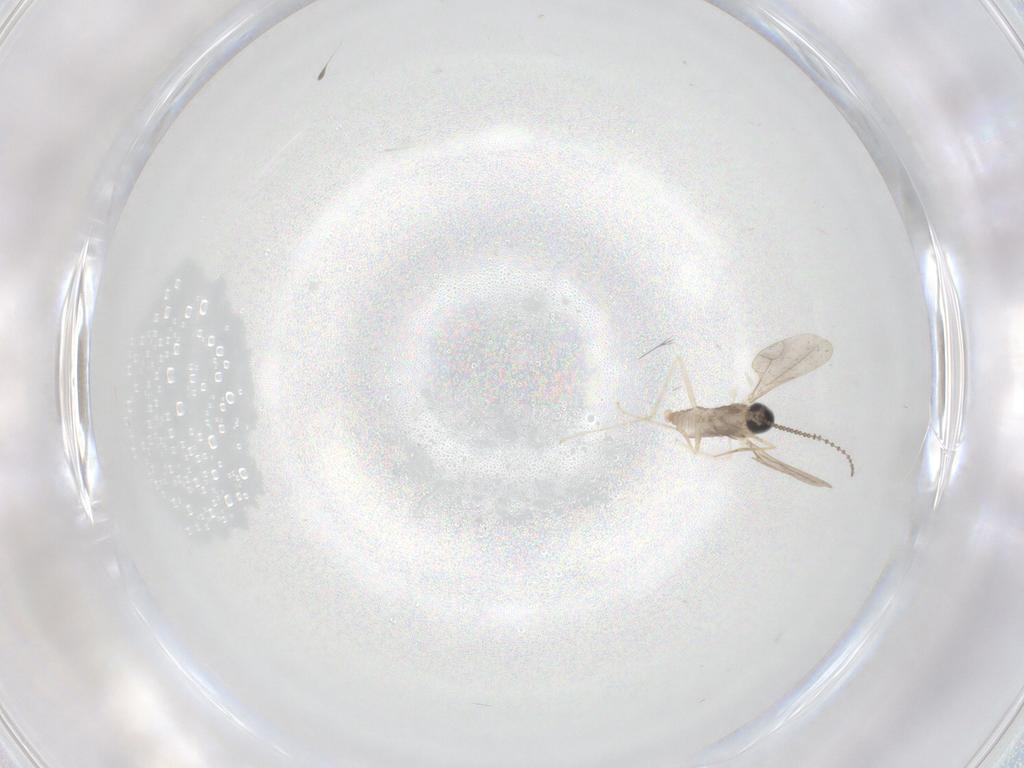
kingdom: Animalia
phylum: Arthropoda
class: Insecta
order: Diptera
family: Cecidomyiidae
